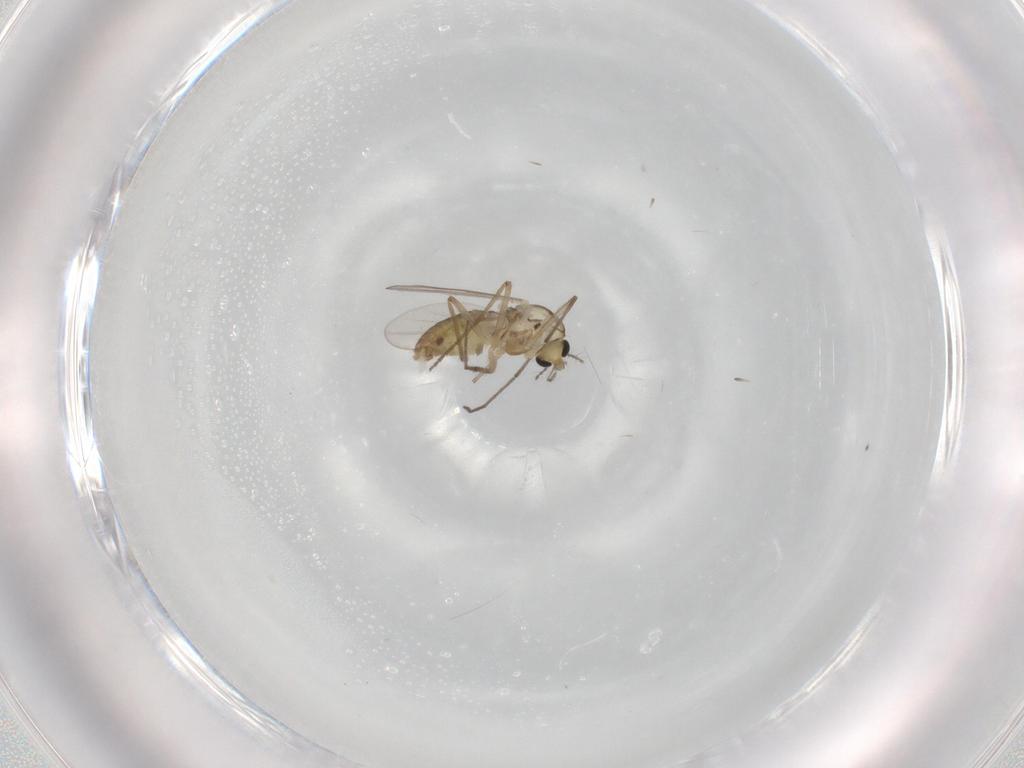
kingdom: Animalia
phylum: Arthropoda
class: Insecta
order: Diptera
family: Chironomidae
